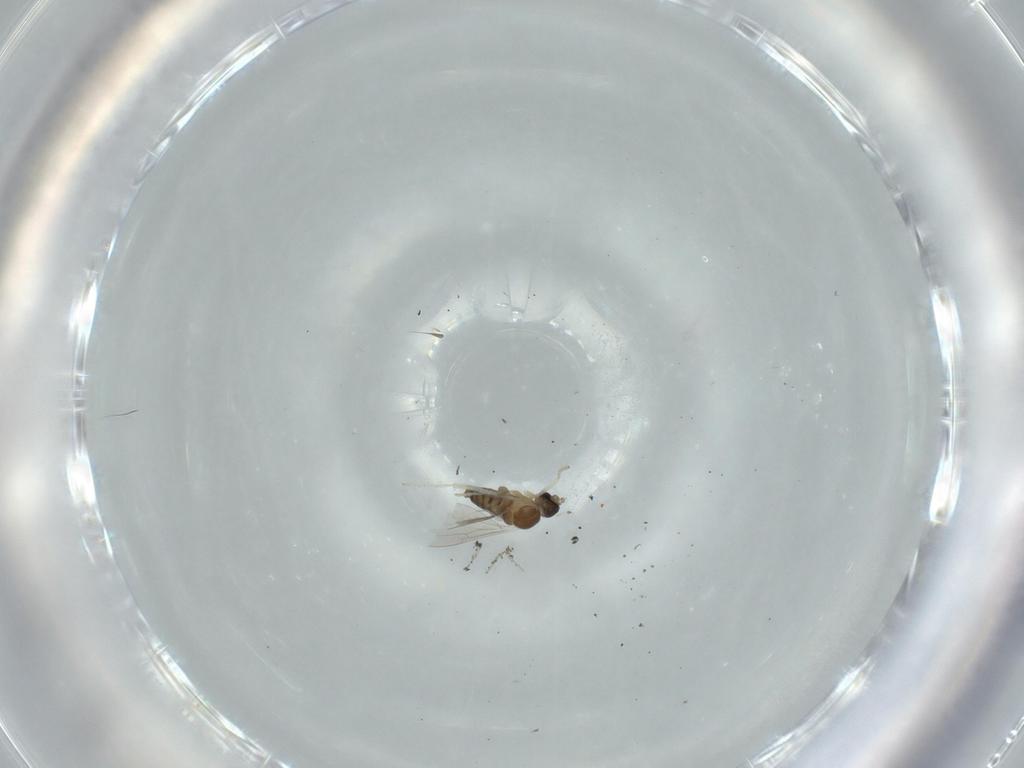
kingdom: Animalia
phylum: Arthropoda
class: Insecta
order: Diptera
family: Cecidomyiidae
